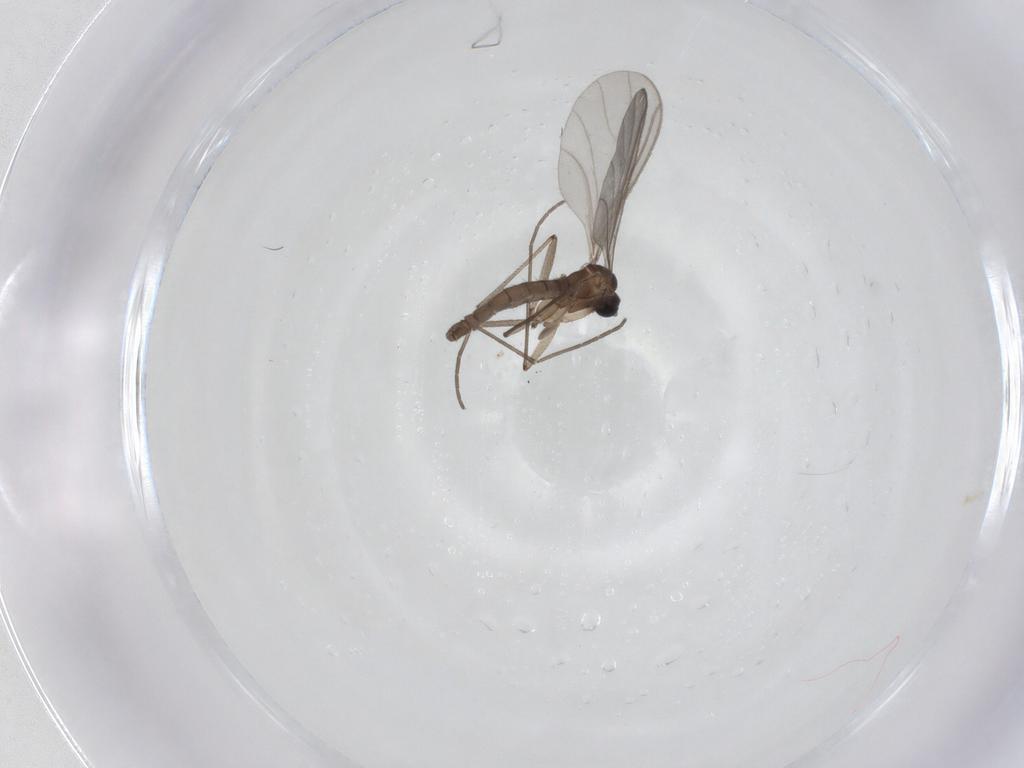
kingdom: Animalia
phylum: Arthropoda
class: Insecta
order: Diptera
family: Sciaridae
